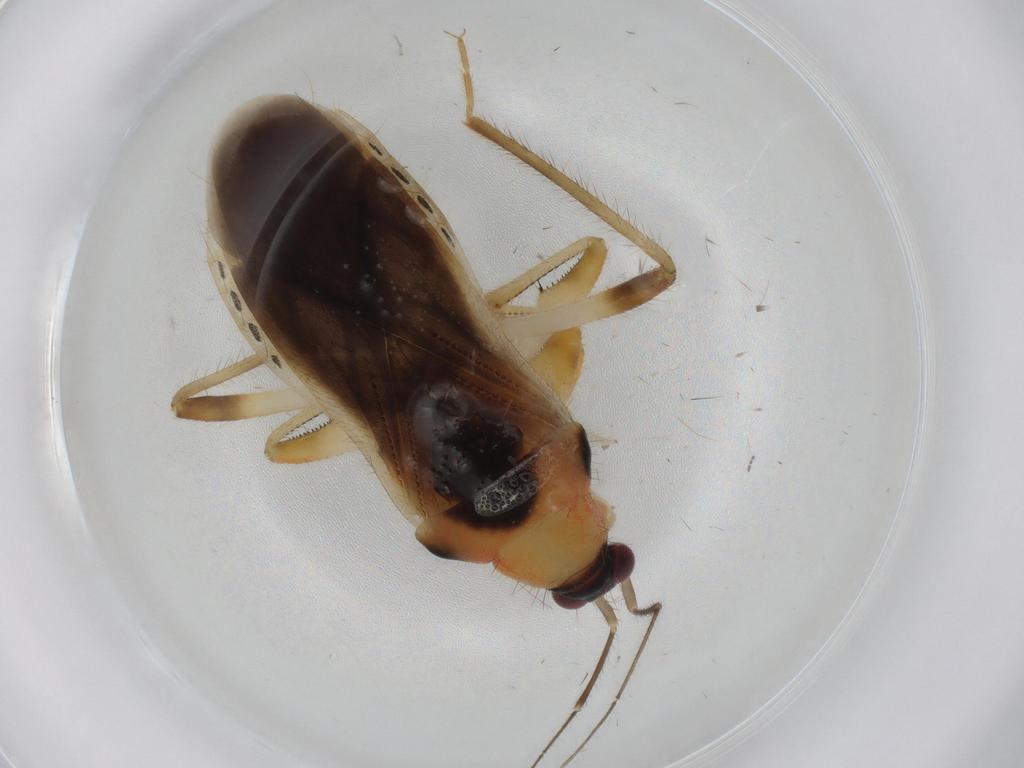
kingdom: Animalia
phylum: Arthropoda
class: Insecta
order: Hemiptera
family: Nabidae
